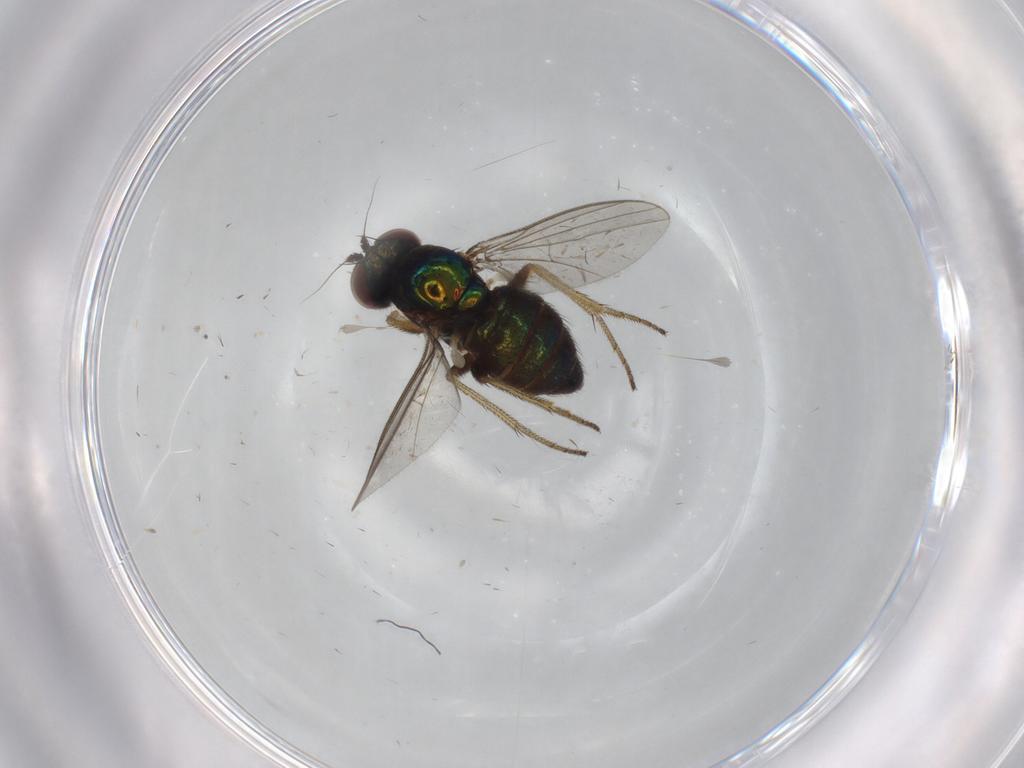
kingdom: Animalia
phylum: Arthropoda
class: Insecta
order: Diptera
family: Dolichopodidae
